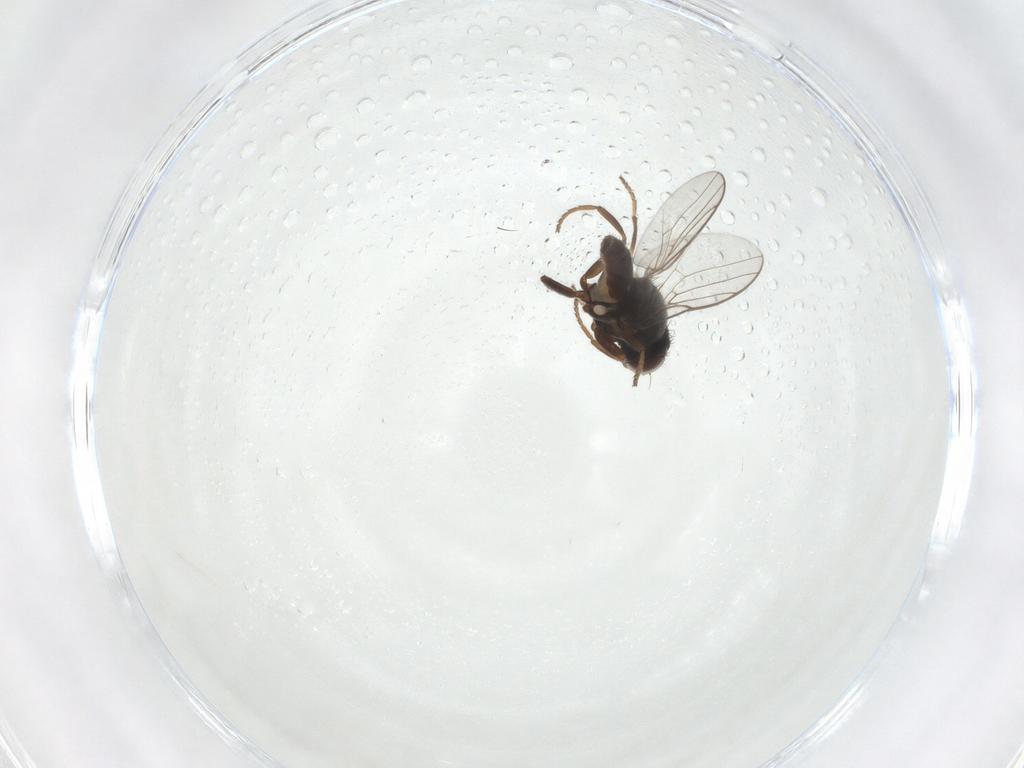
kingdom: Animalia
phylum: Arthropoda
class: Insecta
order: Diptera
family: Chloropidae
